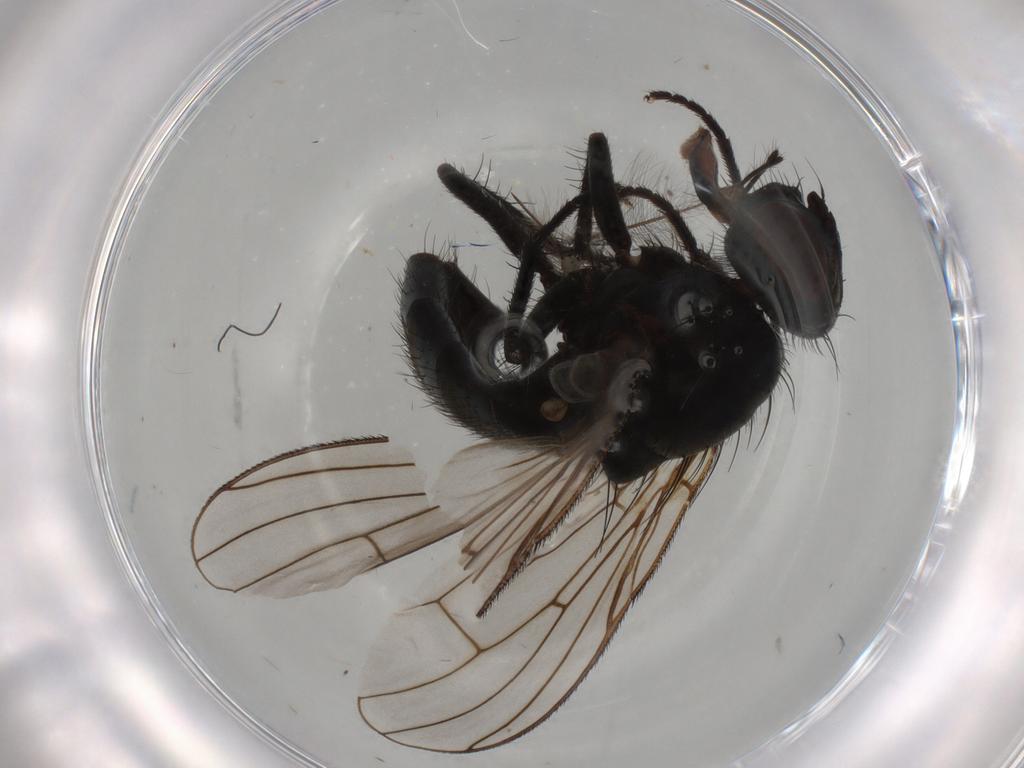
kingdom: Animalia
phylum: Arthropoda
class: Insecta
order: Diptera
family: Muscidae
